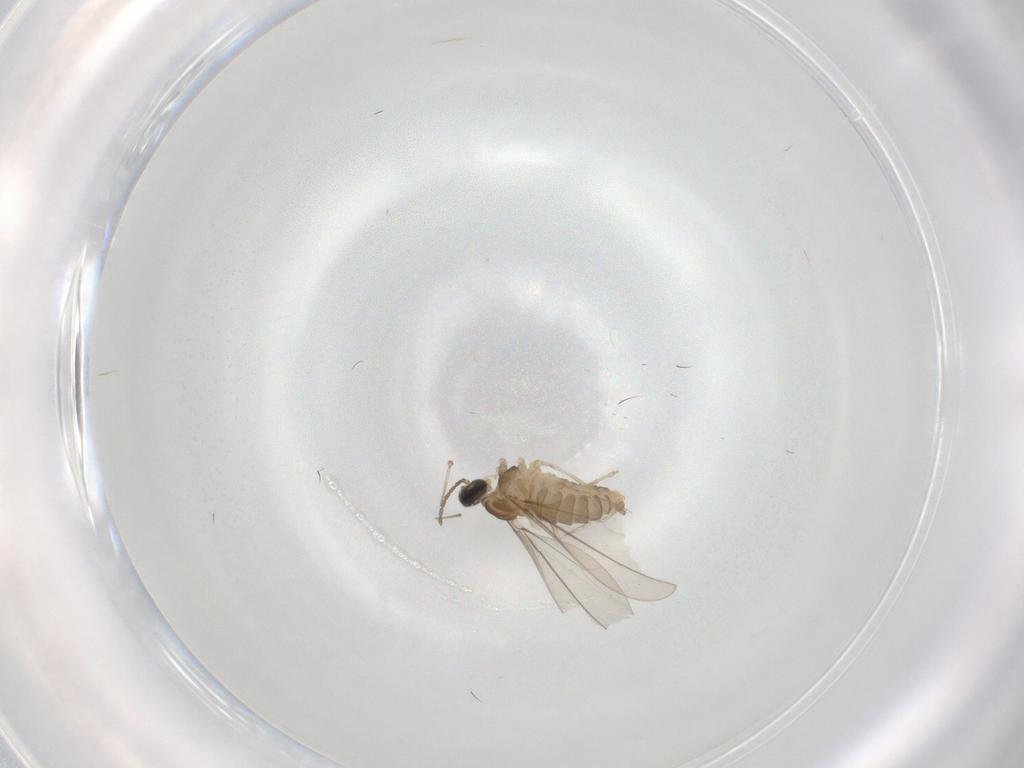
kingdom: Animalia
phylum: Arthropoda
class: Insecta
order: Diptera
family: Cecidomyiidae
